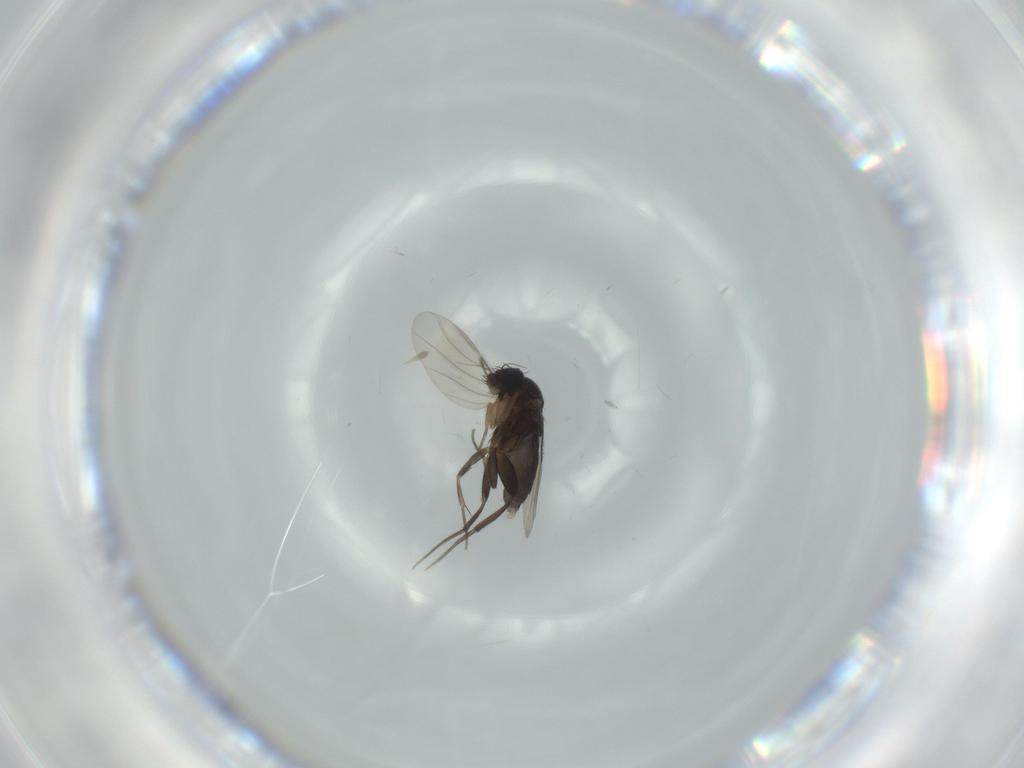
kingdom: Animalia
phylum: Arthropoda
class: Insecta
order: Diptera
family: Phoridae
